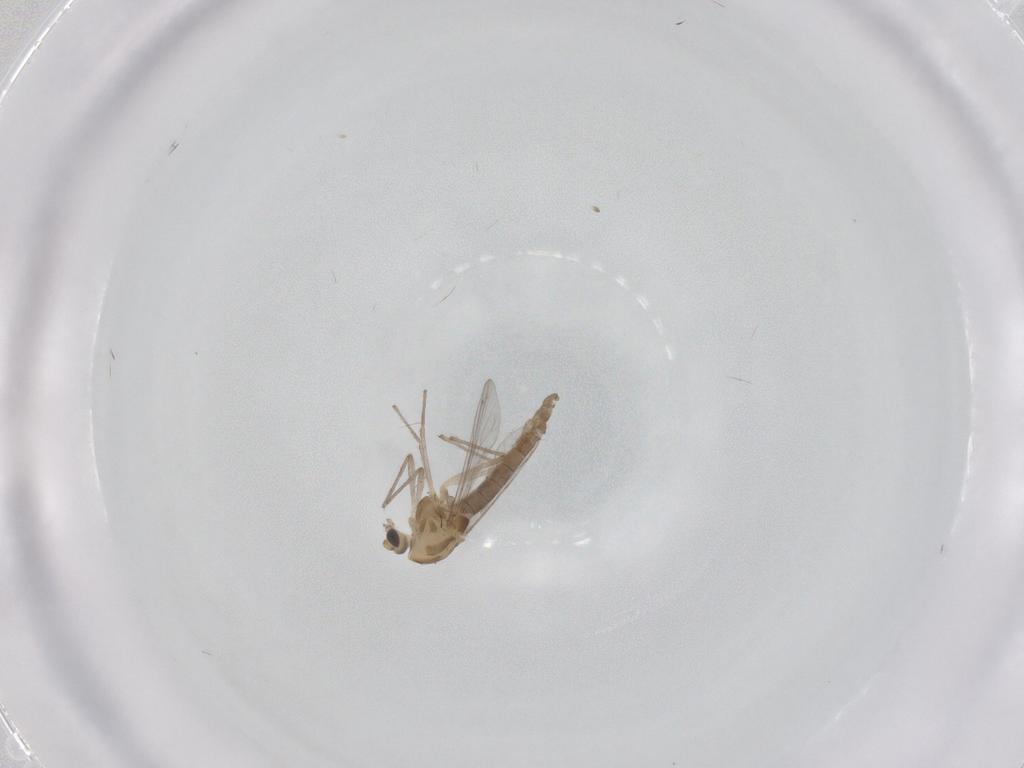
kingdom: Animalia
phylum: Arthropoda
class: Insecta
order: Diptera
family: Chironomidae
